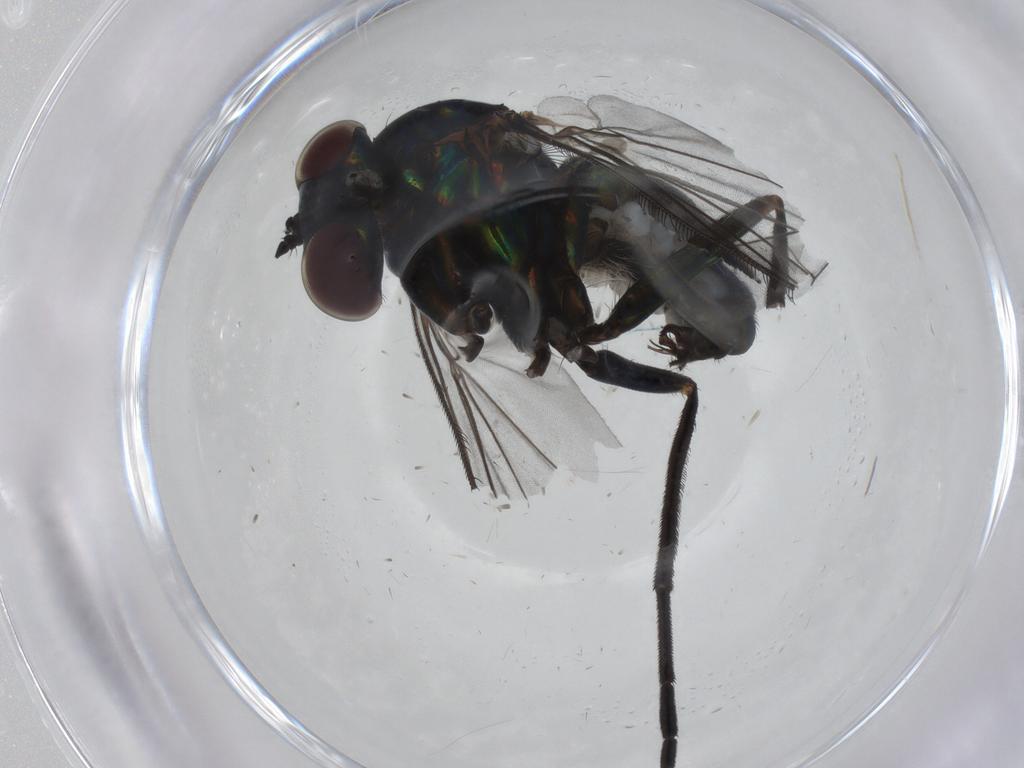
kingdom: Animalia
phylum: Arthropoda
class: Insecta
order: Diptera
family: Dolichopodidae
